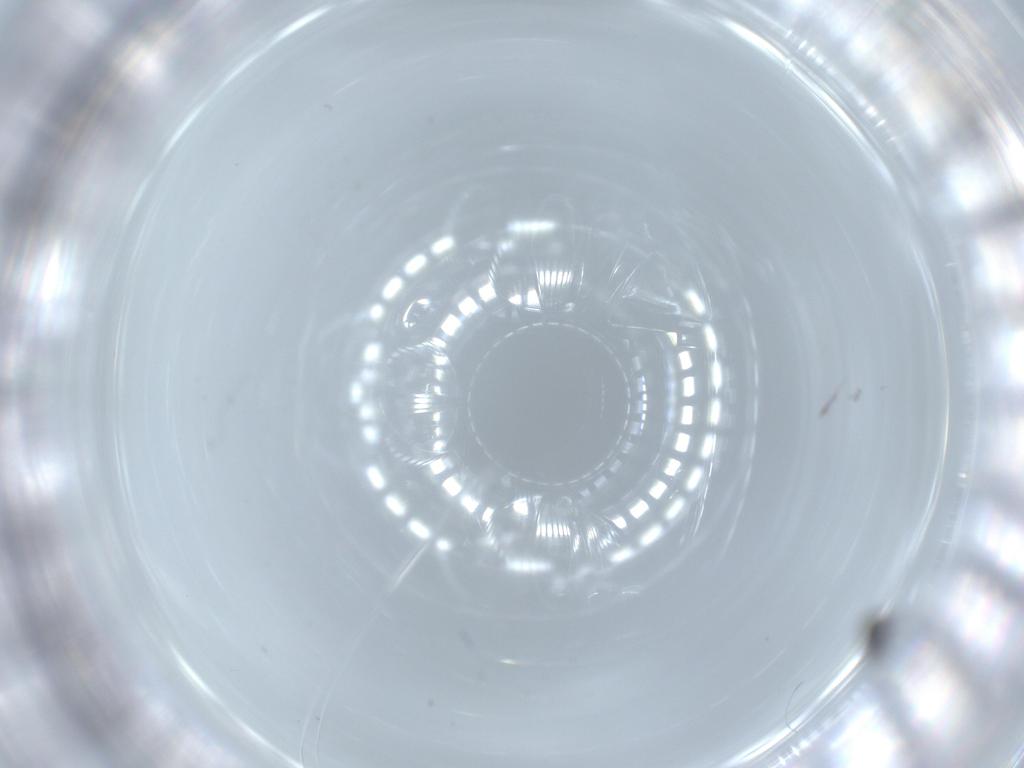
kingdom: Animalia
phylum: Arthropoda
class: Insecta
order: Hymenoptera
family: Scelionidae
